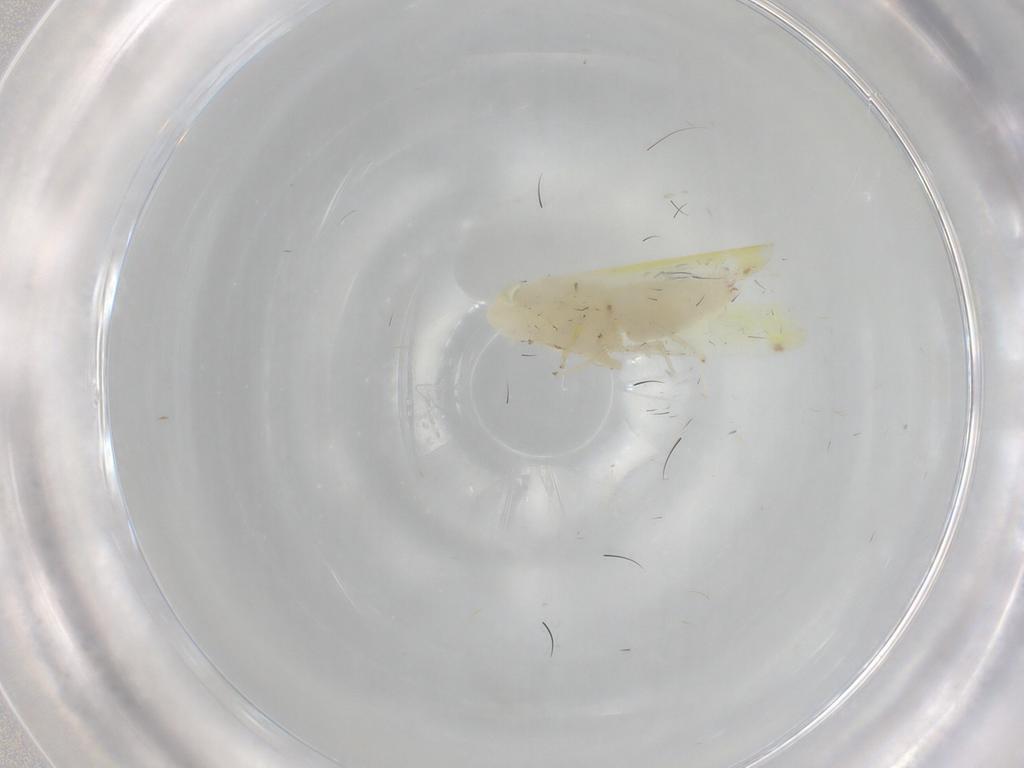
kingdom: Animalia
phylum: Arthropoda
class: Insecta
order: Hemiptera
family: Cicadellidae
